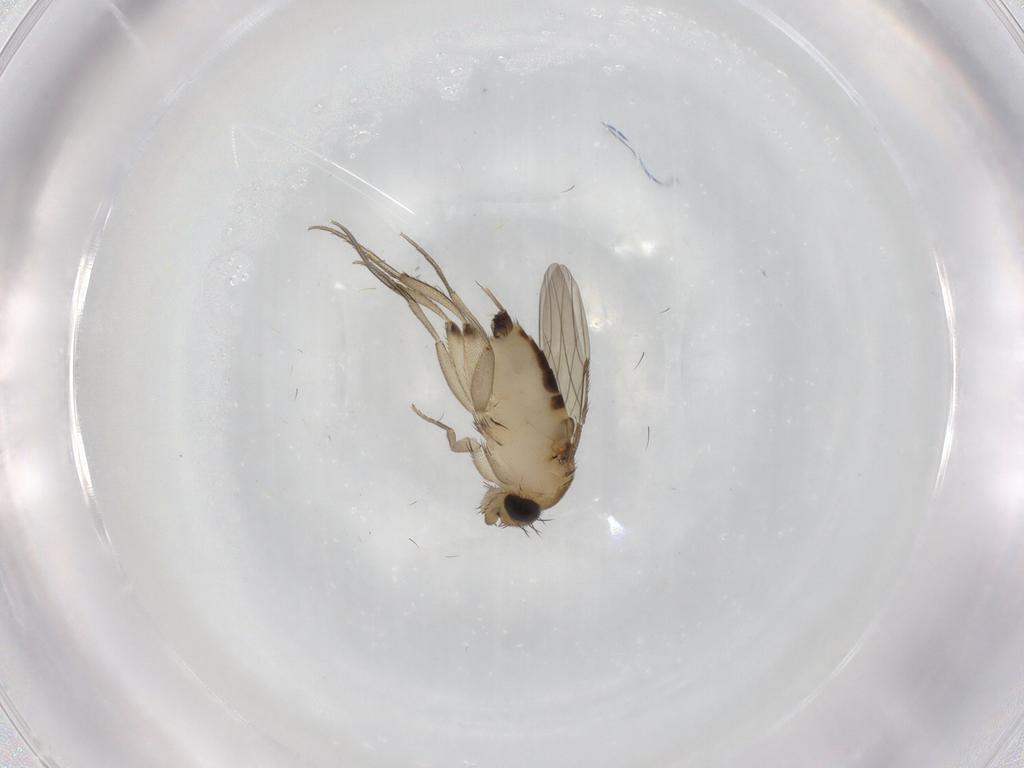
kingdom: Animalia
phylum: Arthropoda
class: Insecta
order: Diptera
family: Phoridae
